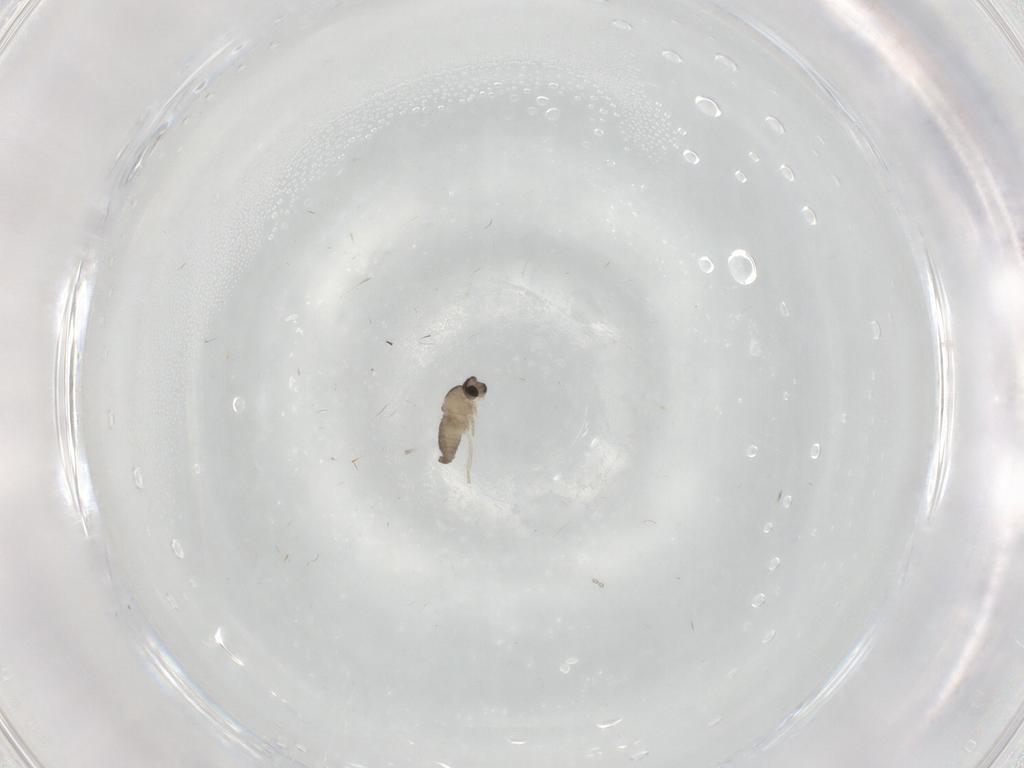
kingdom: Animalia
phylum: Arthropoda
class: Insecta
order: Diptera
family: Cecidomyiidae
